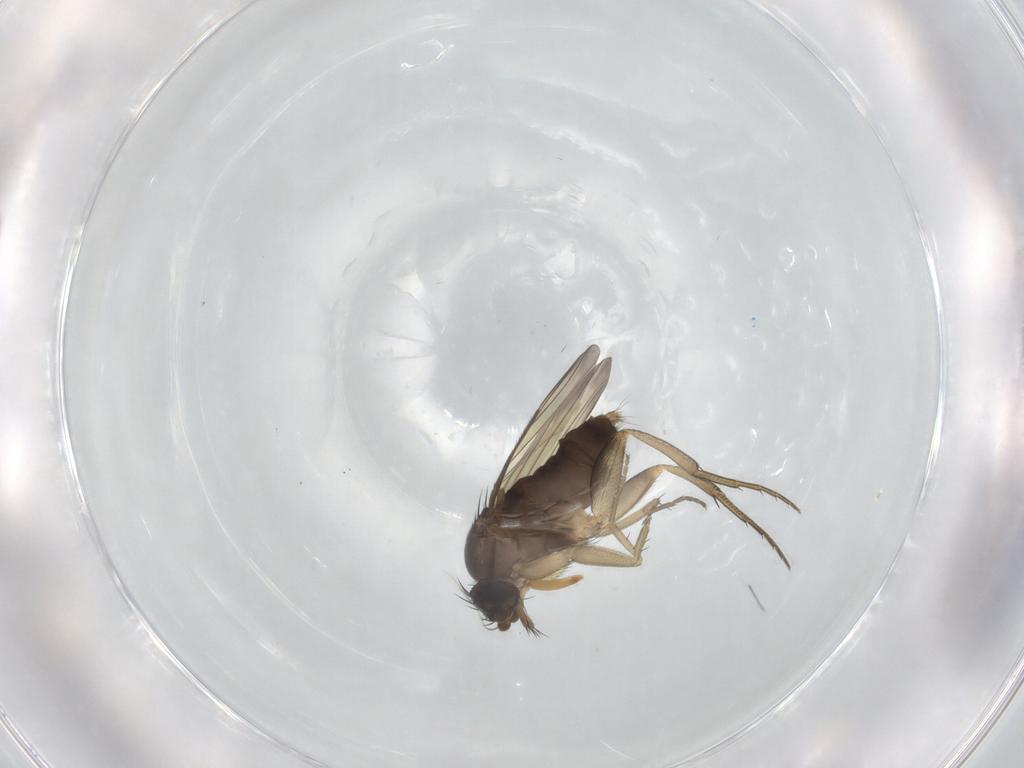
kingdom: Animalia
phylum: Arthropoda
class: Insecta
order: Diptera
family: Phoridae
